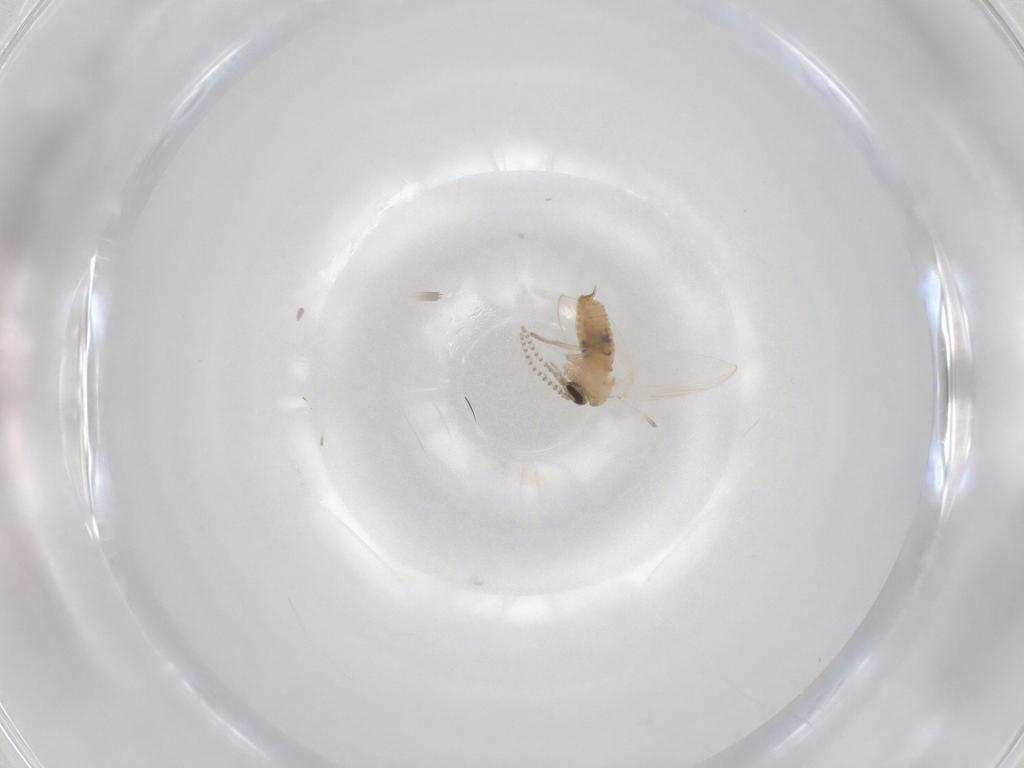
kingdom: Animalia
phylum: Arthropoda
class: Insecta
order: Diptera
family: Psychodidae
